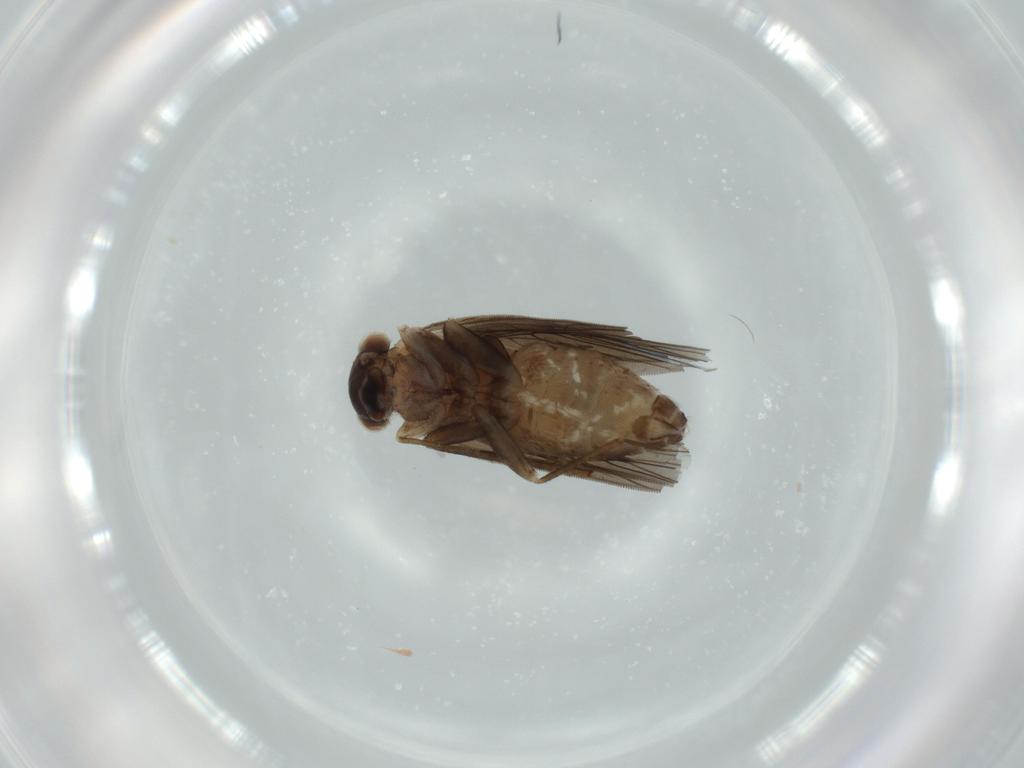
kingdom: Animalia
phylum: Arthropoda
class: Insecta
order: Psocodea
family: Lepidopsocidae
